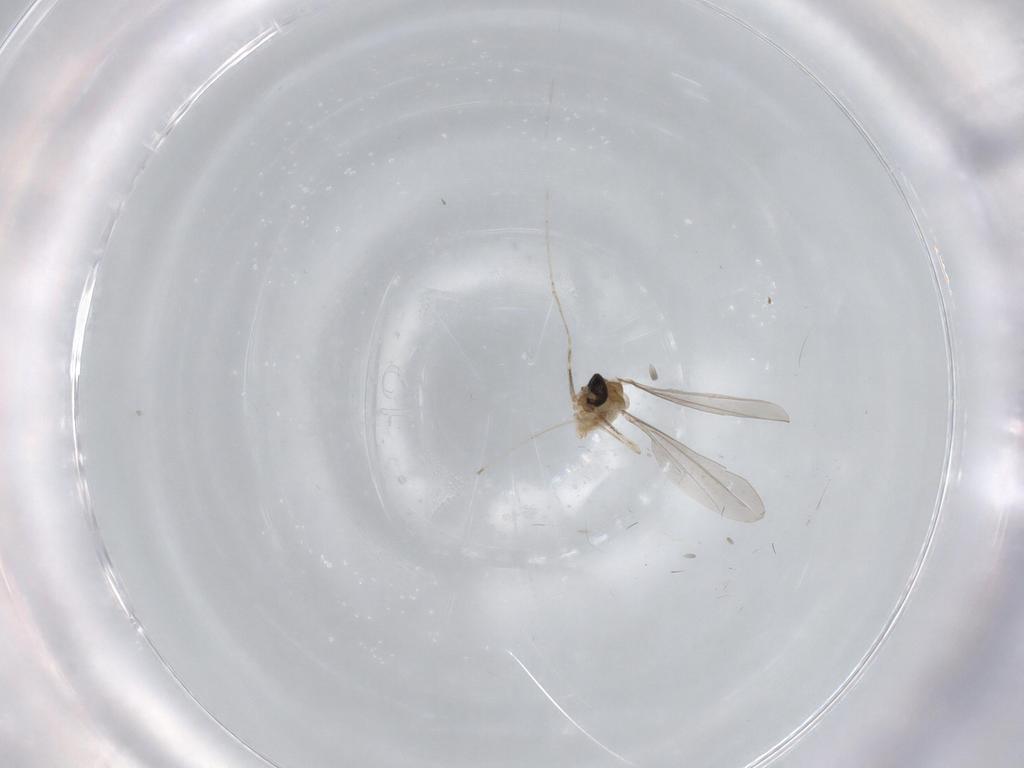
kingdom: Animalia
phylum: Arthropoda
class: Insecta
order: Diptera
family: Cecidomyiidae
